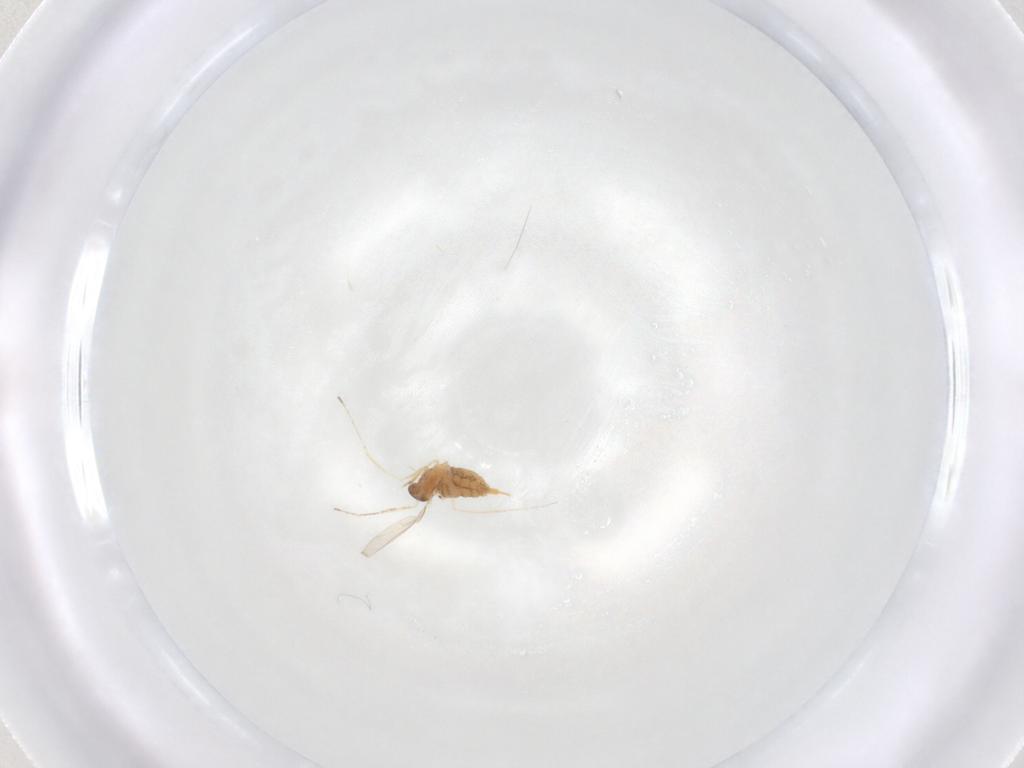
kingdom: Animalia
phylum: Arthropoda
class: Insecta
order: Diptera
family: Cecidomyiidae
